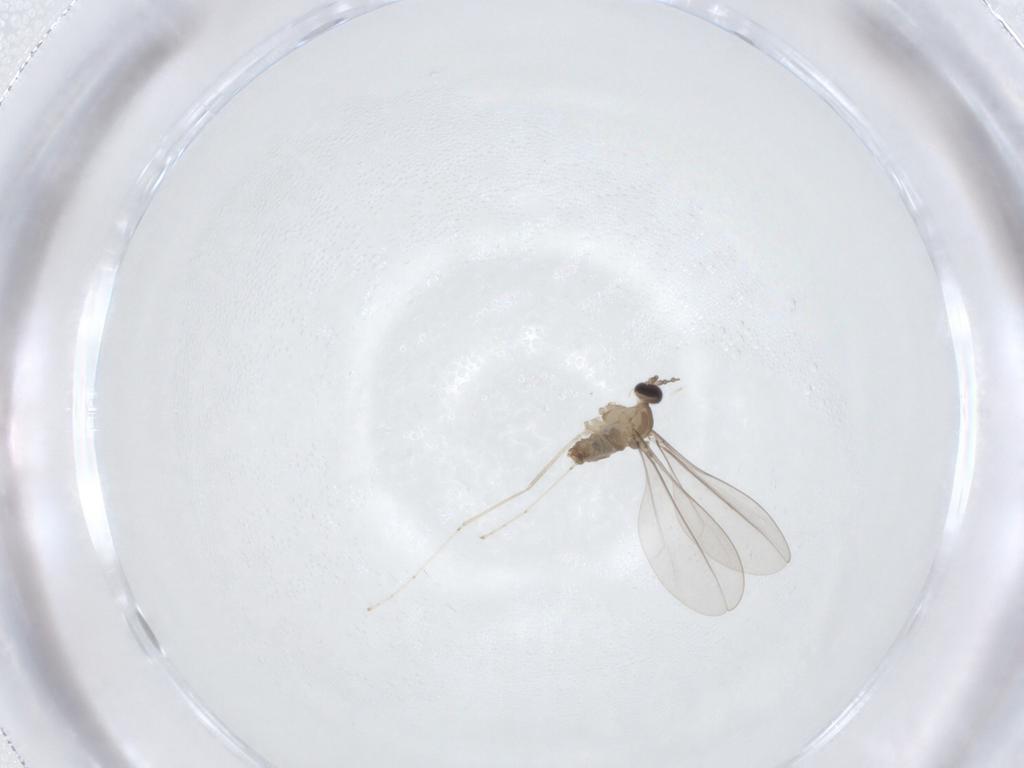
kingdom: Animalia
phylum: Arthropoda
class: Insecta
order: Diptera
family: Cecidomyiidae
